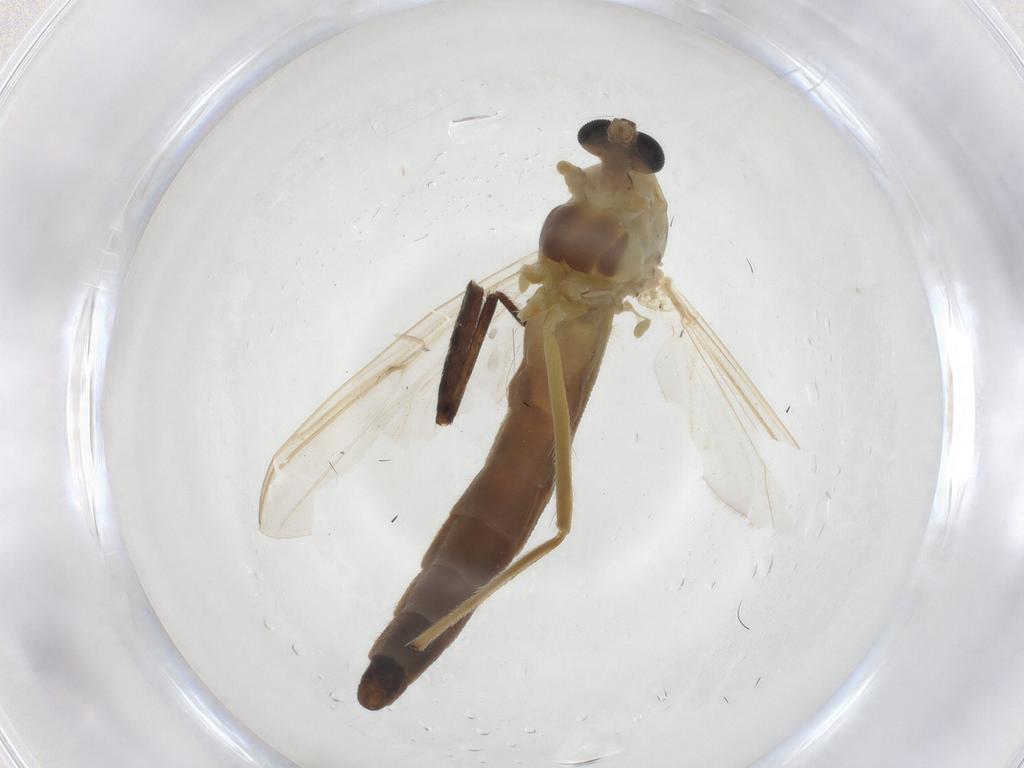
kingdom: Animalia
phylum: Arthropoda
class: Insecta
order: Diptera
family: Chironomidae
